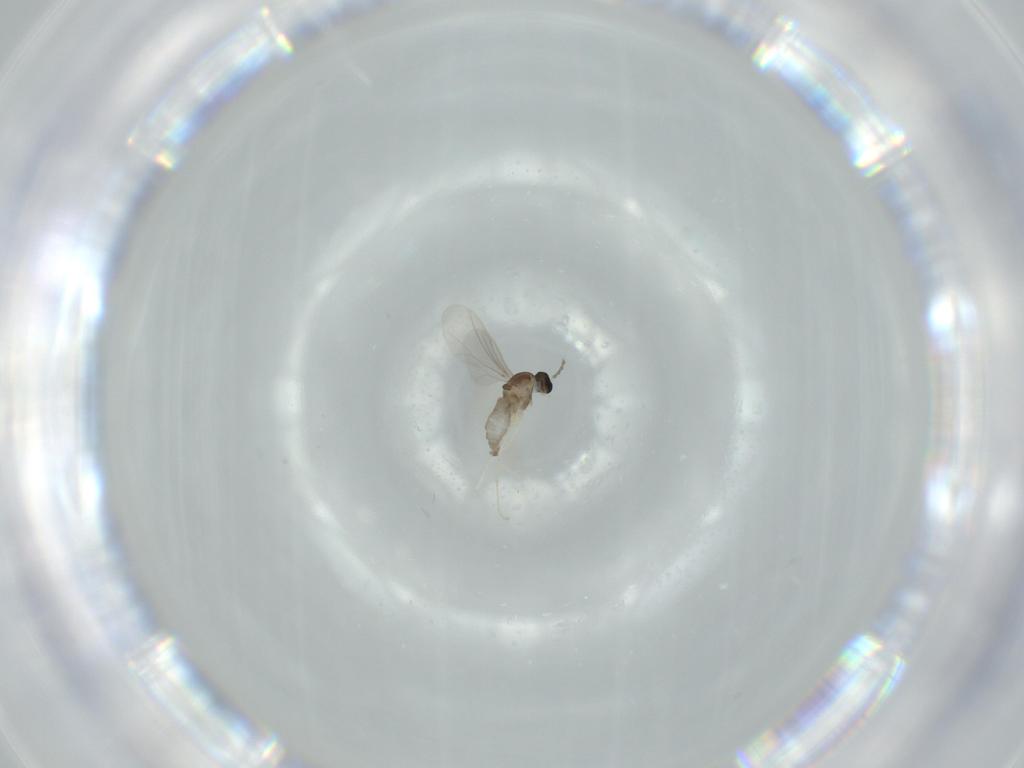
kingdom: Animalia
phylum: Arthropoda
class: Insecta
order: Diptera
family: Cecidomyiidae
